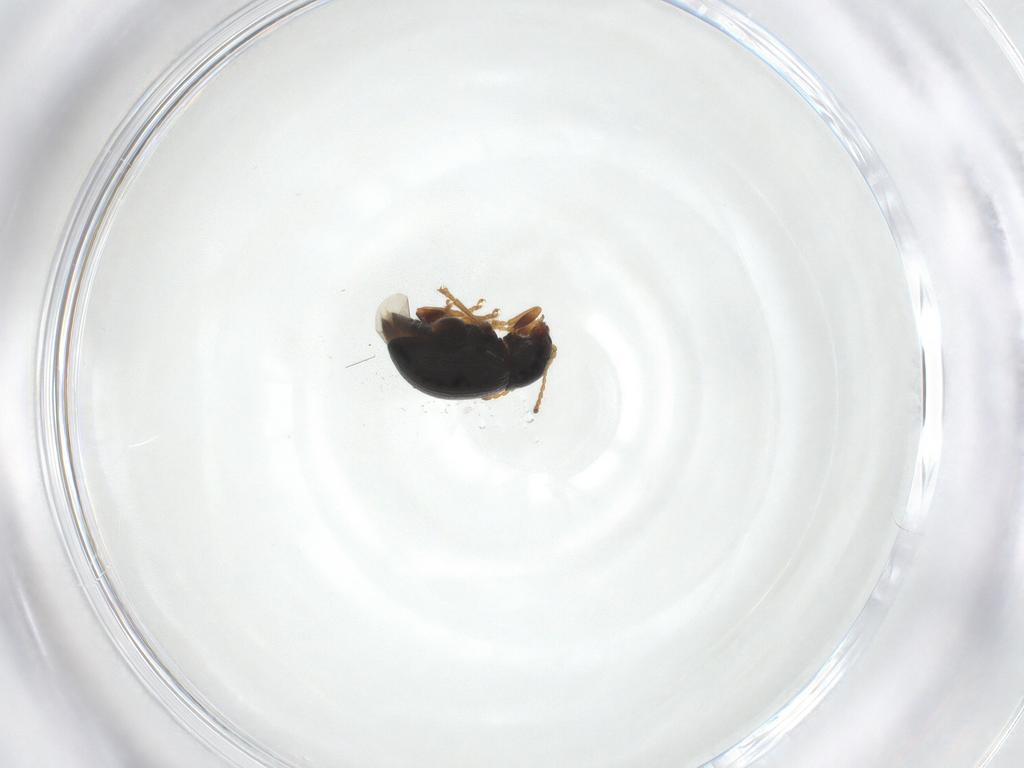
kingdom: Animalia
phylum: Arthropoda
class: Insecta
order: Coleoptera
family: Chrysomelidae
